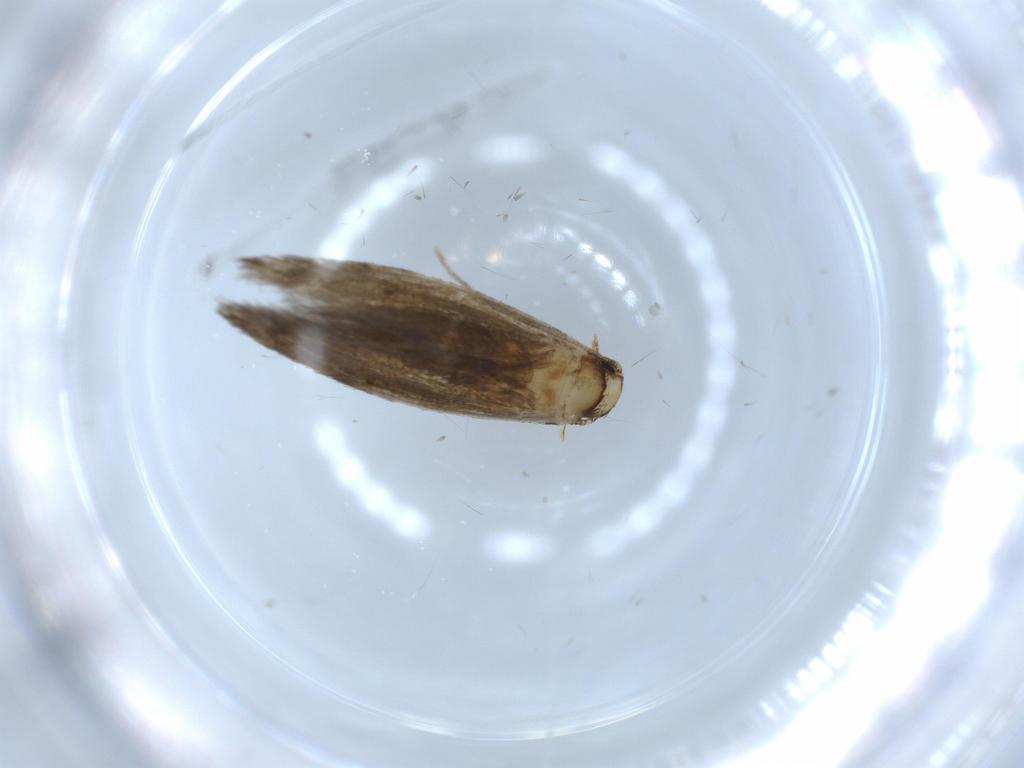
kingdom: Animalia
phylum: Arthropoda
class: Insecta
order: Lepidoptera
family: Tineidae
